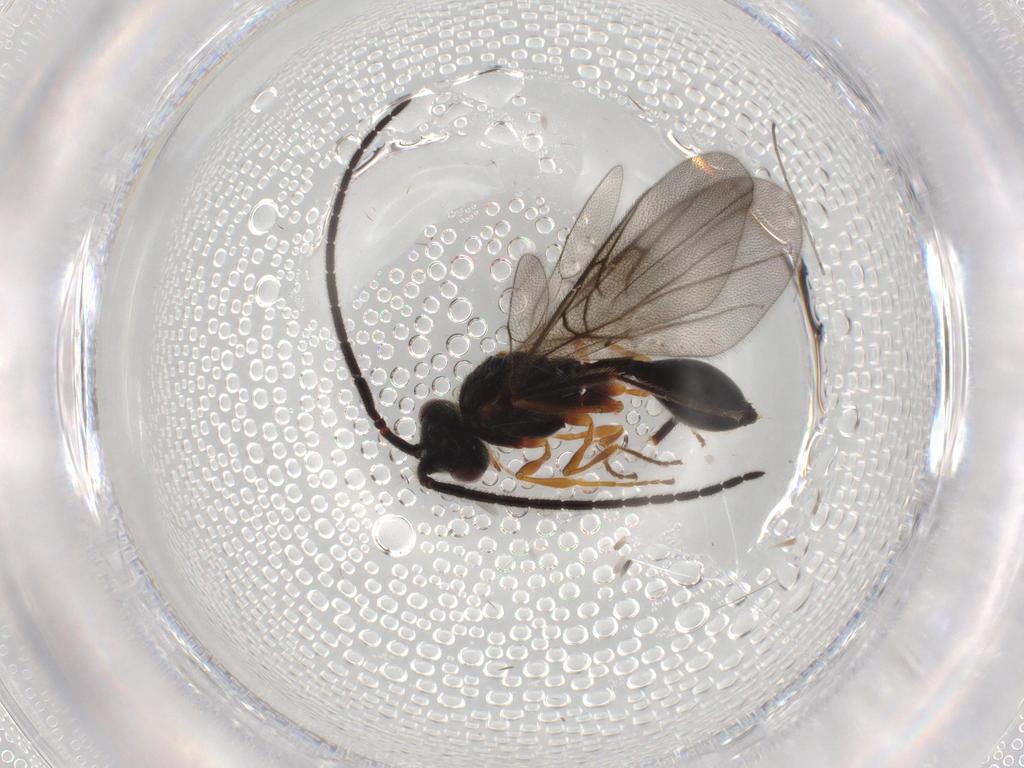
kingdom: Animalia
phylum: Arthropoda
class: Insecta
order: Hymenoptera
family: Diapriidae
